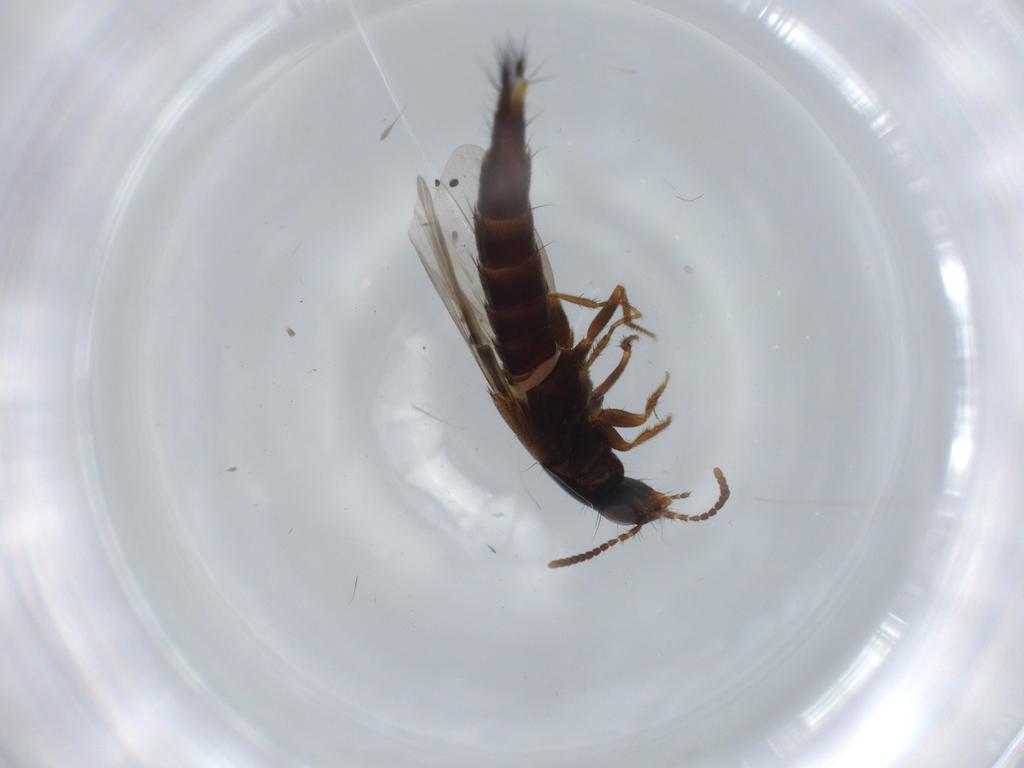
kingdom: Animalia
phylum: Arthropoda
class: Insecta
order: Coleoptera
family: Staphylinidae
